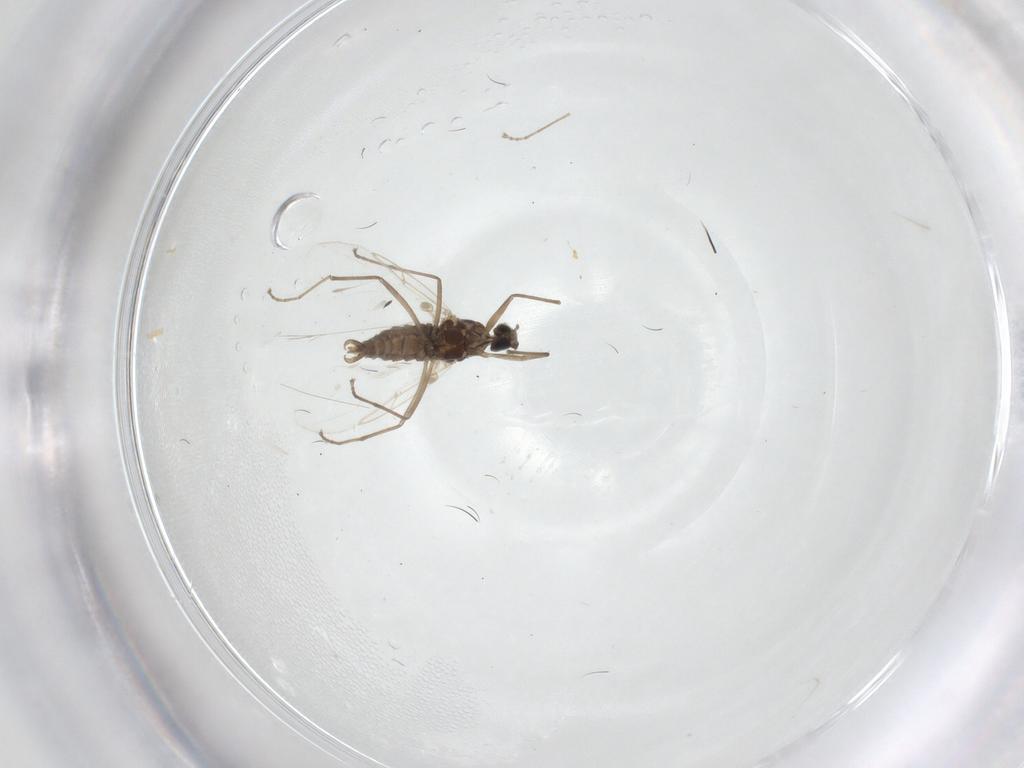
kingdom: Animalia
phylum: Arthropoda
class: Insecta
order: Diptera
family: Cecidomyiidae
